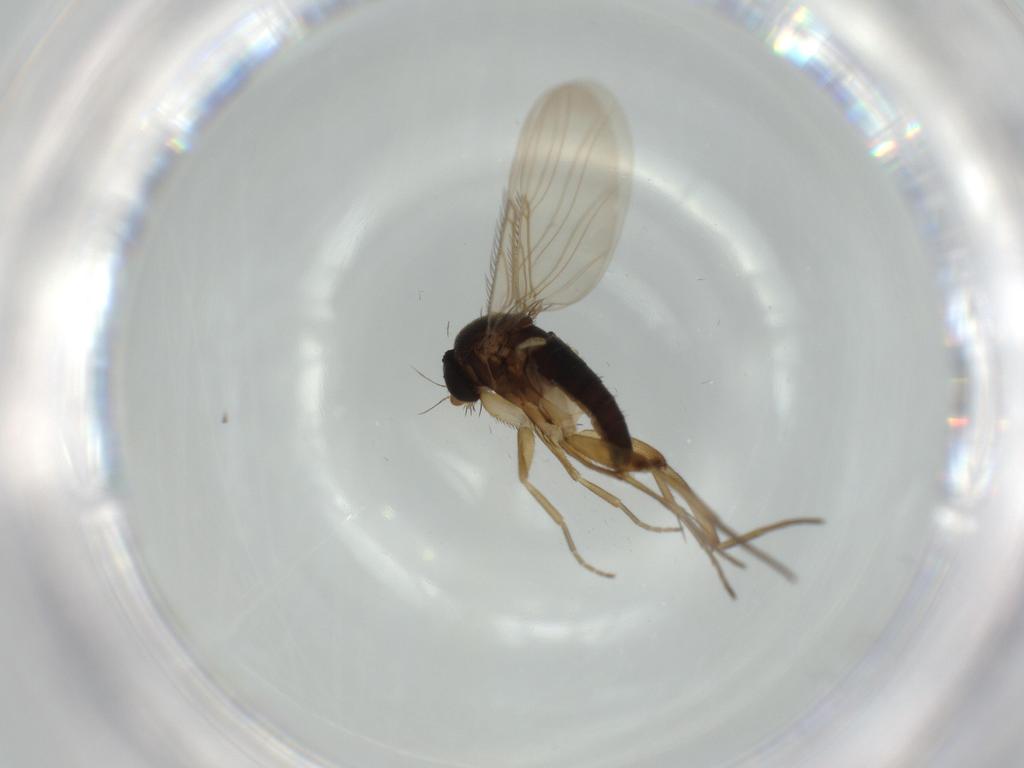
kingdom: Animalia
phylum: Arthropoda
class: Insecta
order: Diptera
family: Phoridae
